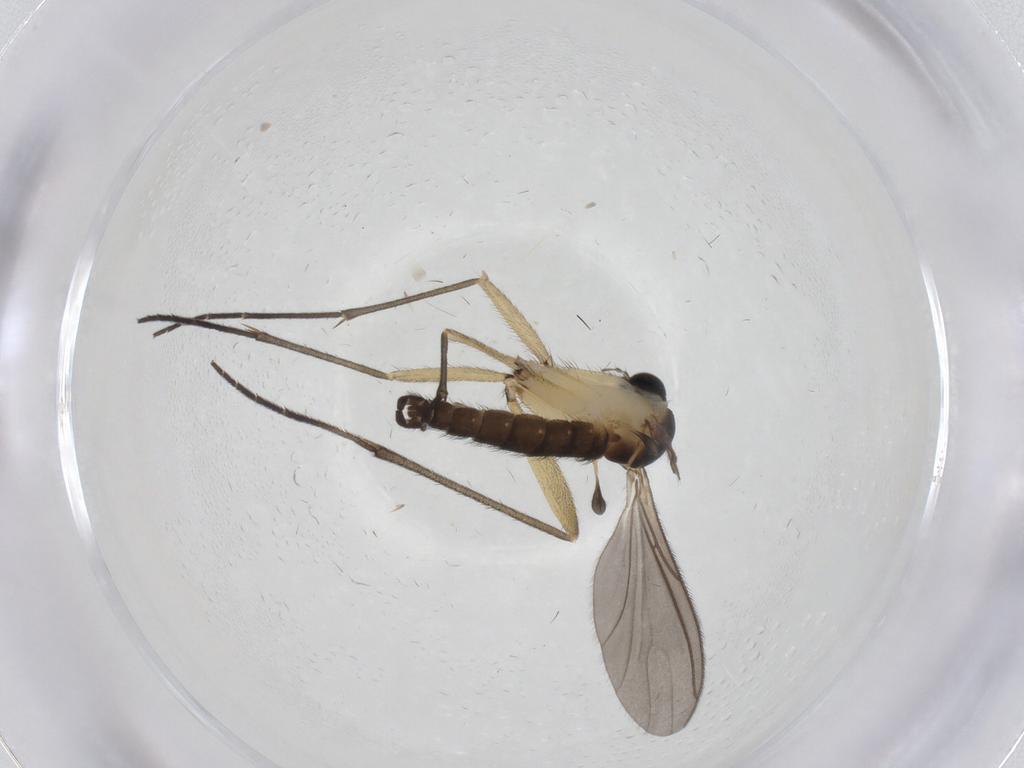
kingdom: Animalia
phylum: Arthropoda
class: Insecta
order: Diptera
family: Sciaridae
